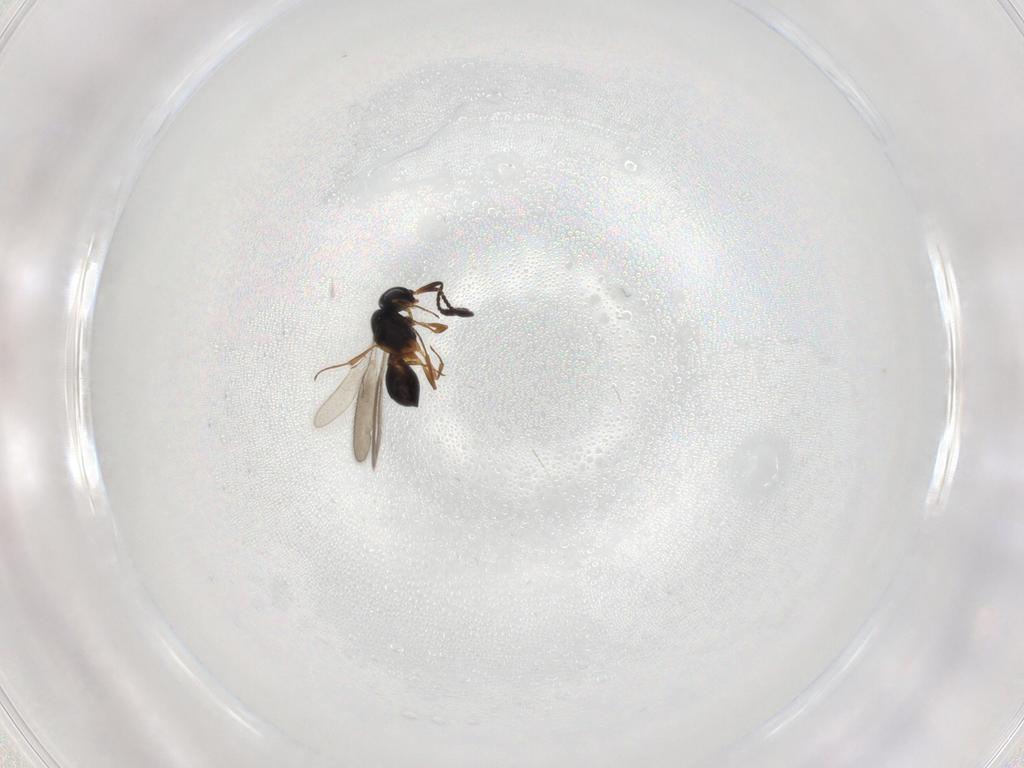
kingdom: Animalia
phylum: Arthropoda
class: Insecta
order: Hymenoptera
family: Scelionidae
